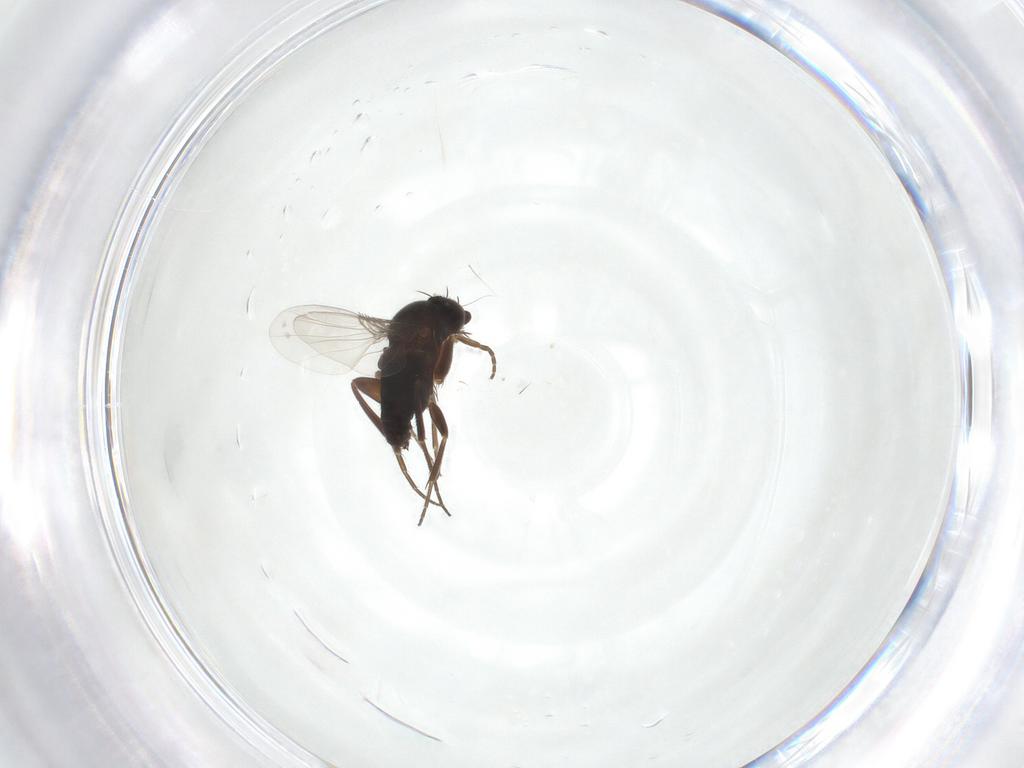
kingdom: Animalia
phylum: Arthropoda
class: Insecta
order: Diptera
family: Phoridae
